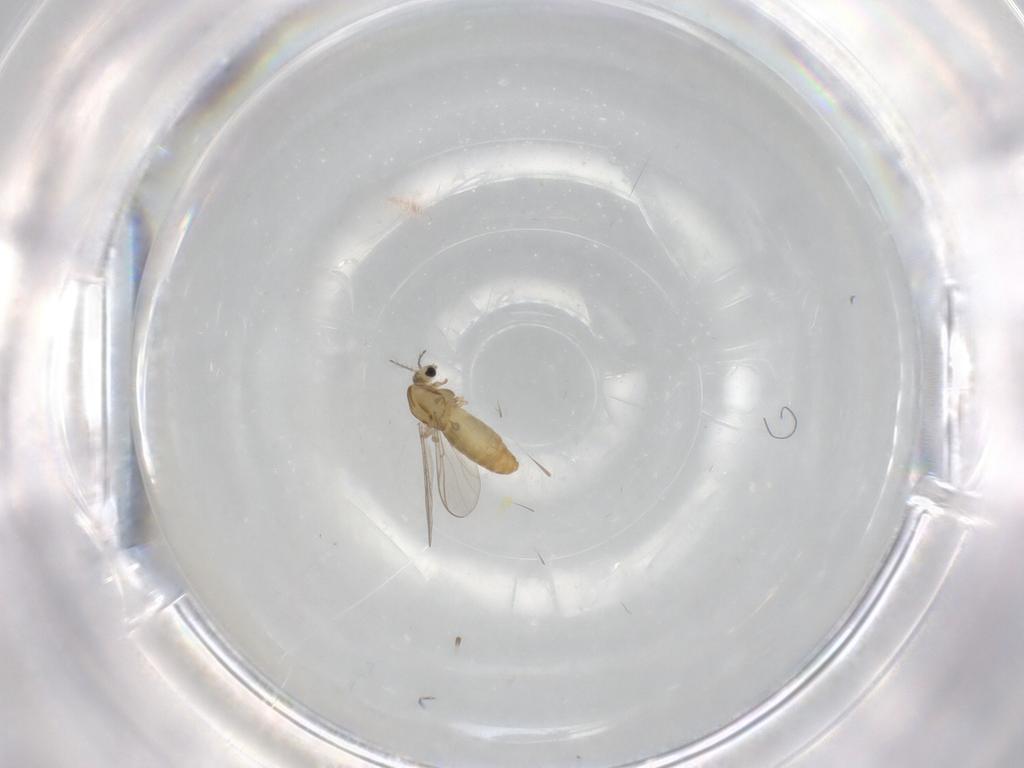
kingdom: Animalia
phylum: Arthropoda
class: Insecta
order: Diptera
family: Chironomidae
